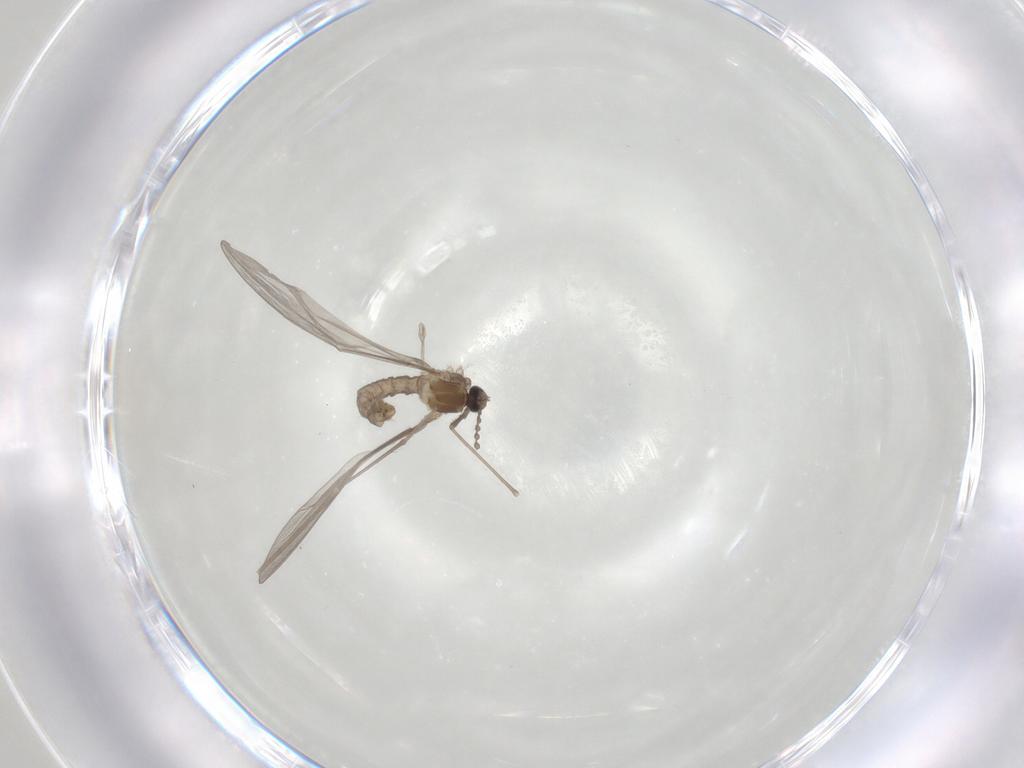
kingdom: Animalia
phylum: Arthropoda
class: Insecta
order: Diptera
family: Cecidomyiidae
